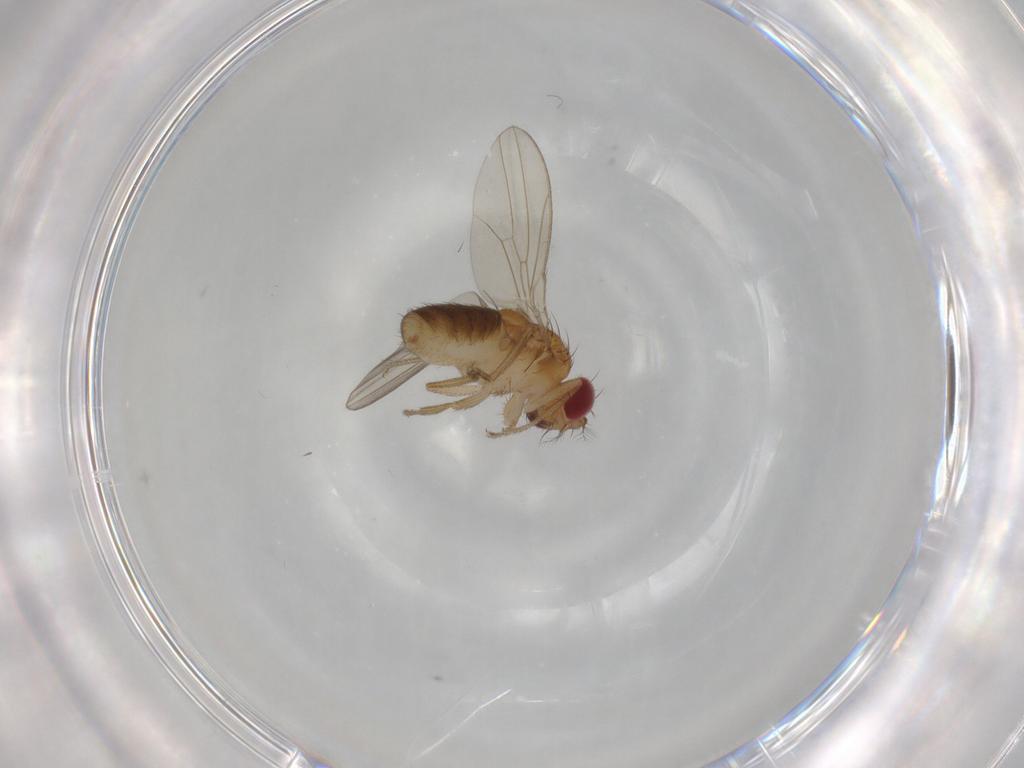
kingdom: Animalia
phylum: Arthropoda
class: Insecta
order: Diptera
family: Drosophilidae
